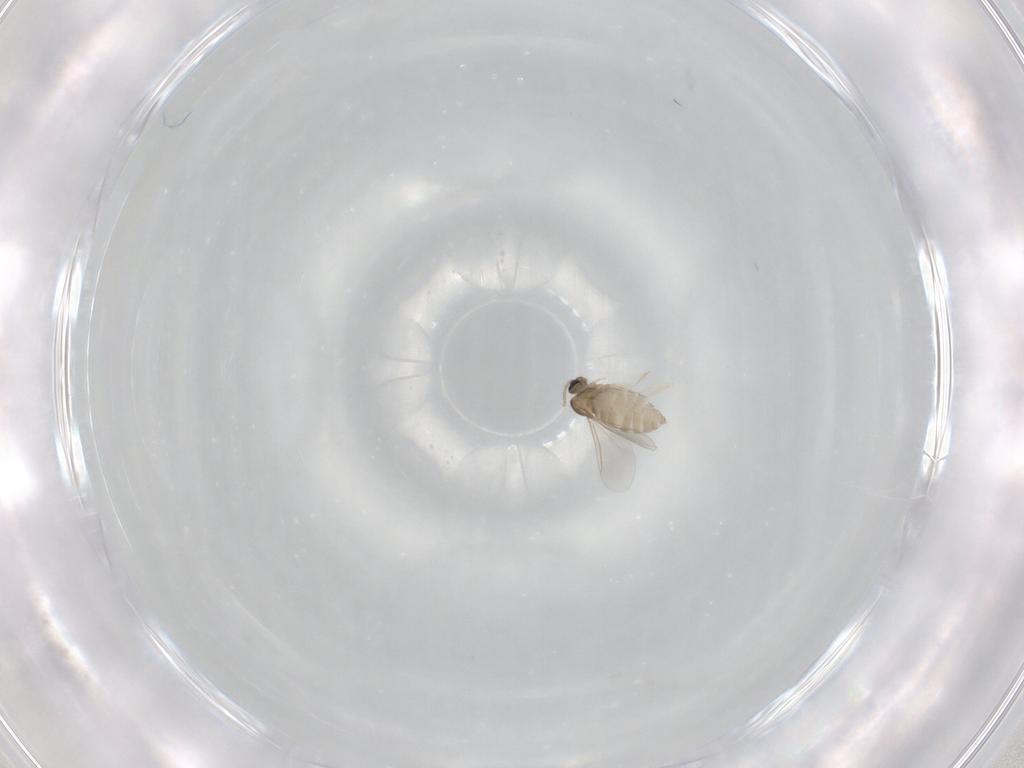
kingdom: Animalia
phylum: Arthropoda
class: Insecta
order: Diptera
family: Cecidomyiidae
